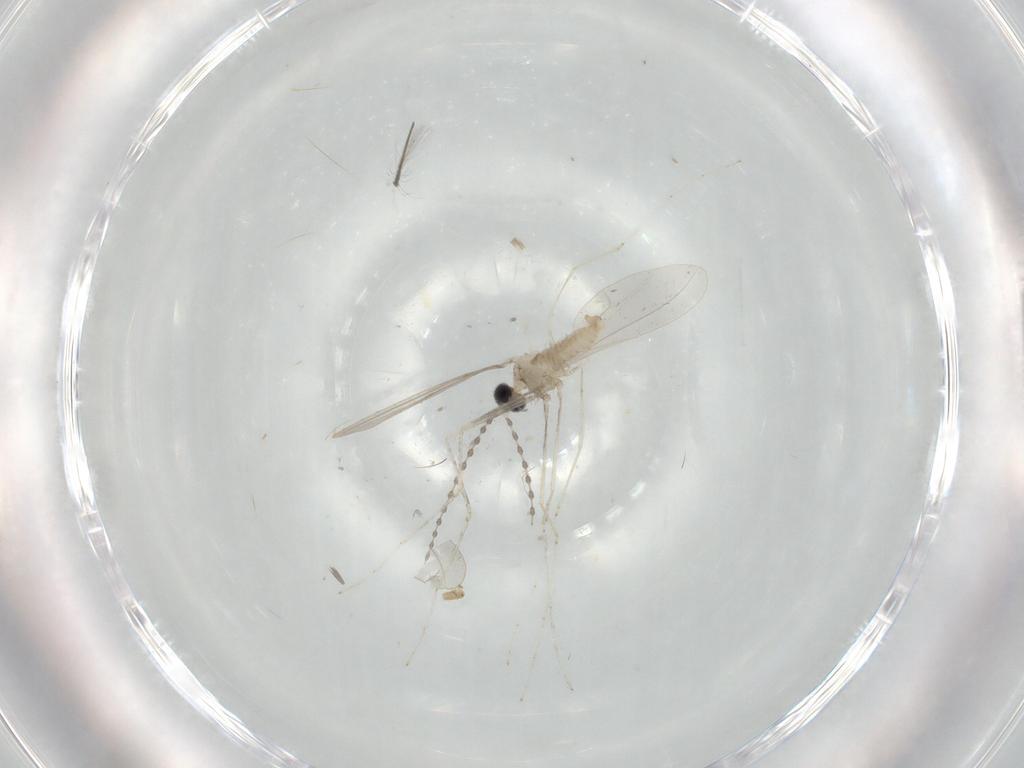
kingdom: Animalia
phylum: Arthropoda
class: Insecta
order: Diptera
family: Cecidomyiidae
